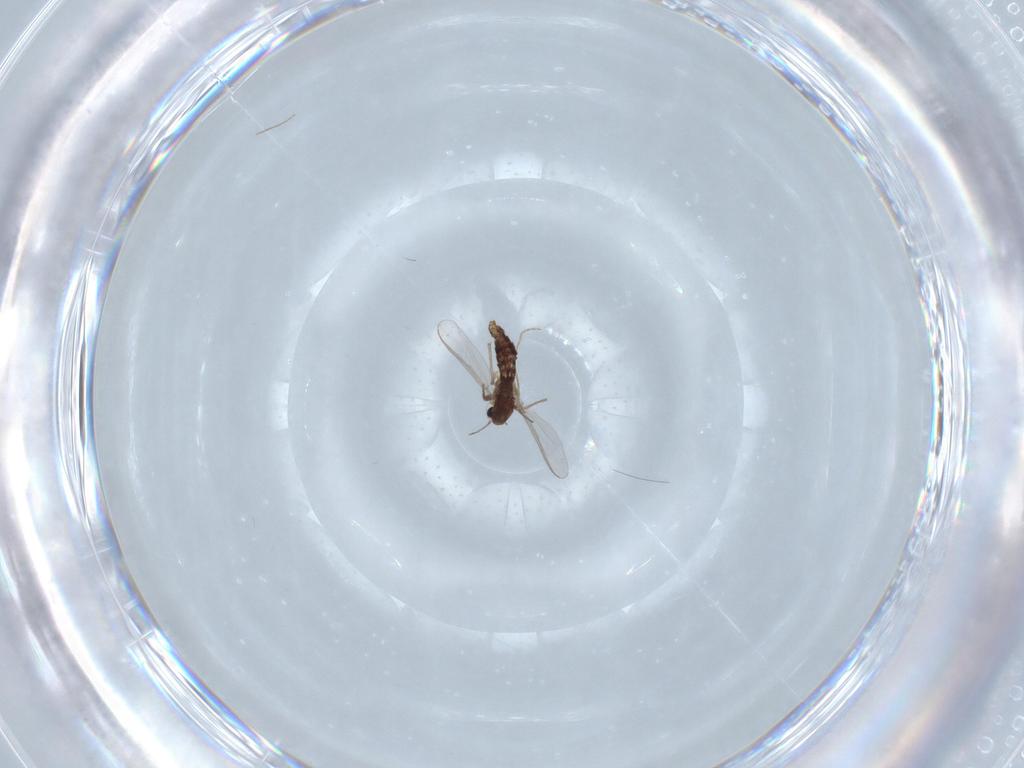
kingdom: Animalia
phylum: Arthropoda
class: Insecta
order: Diptera
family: Chironomidae
